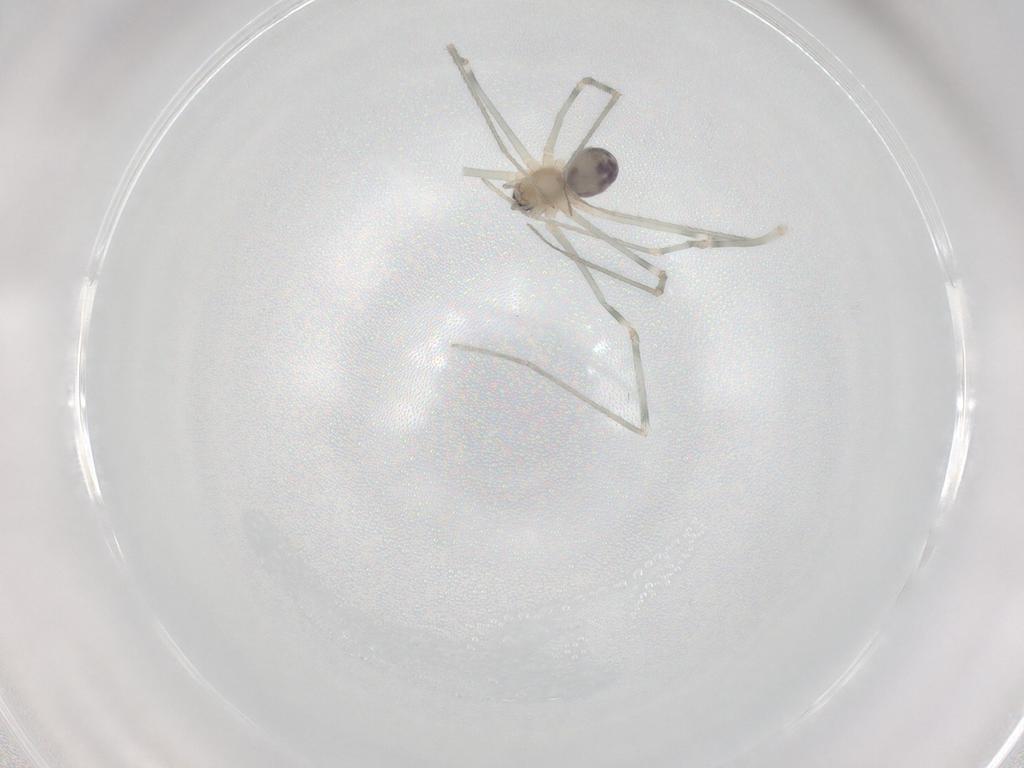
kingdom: Animalia
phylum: Arthropoda
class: Arachnida
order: Araneae
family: Pholcidae
